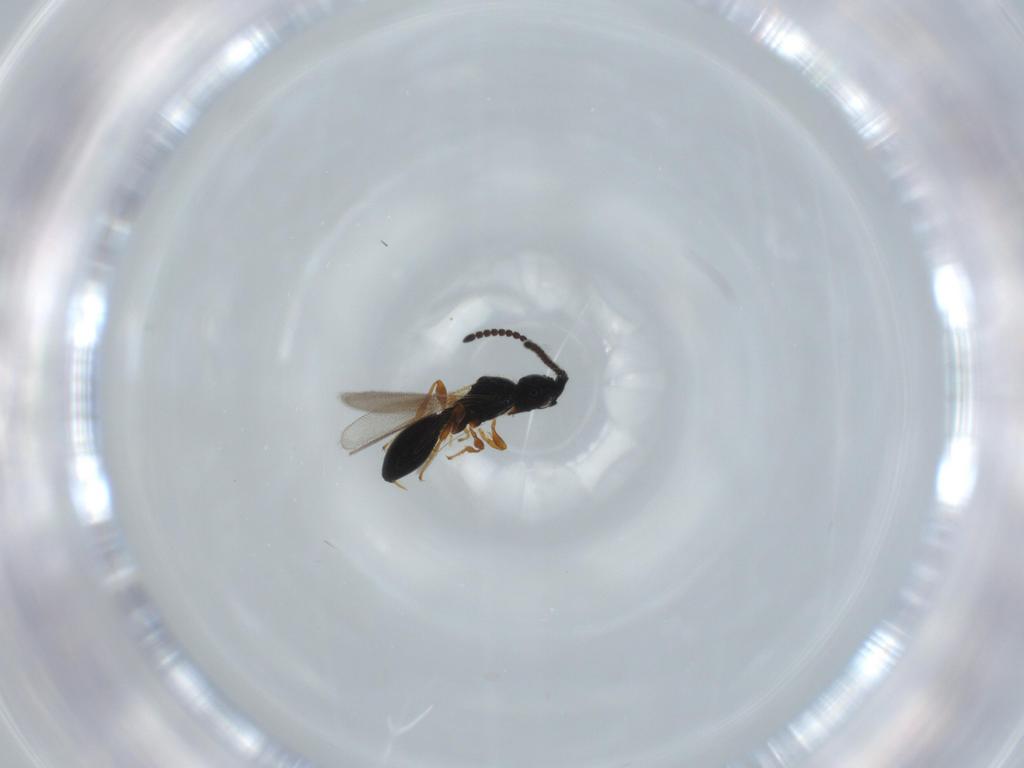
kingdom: Animalia
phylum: Arthropoda
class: Insecta
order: Hymenoptera
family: Diapriidae
